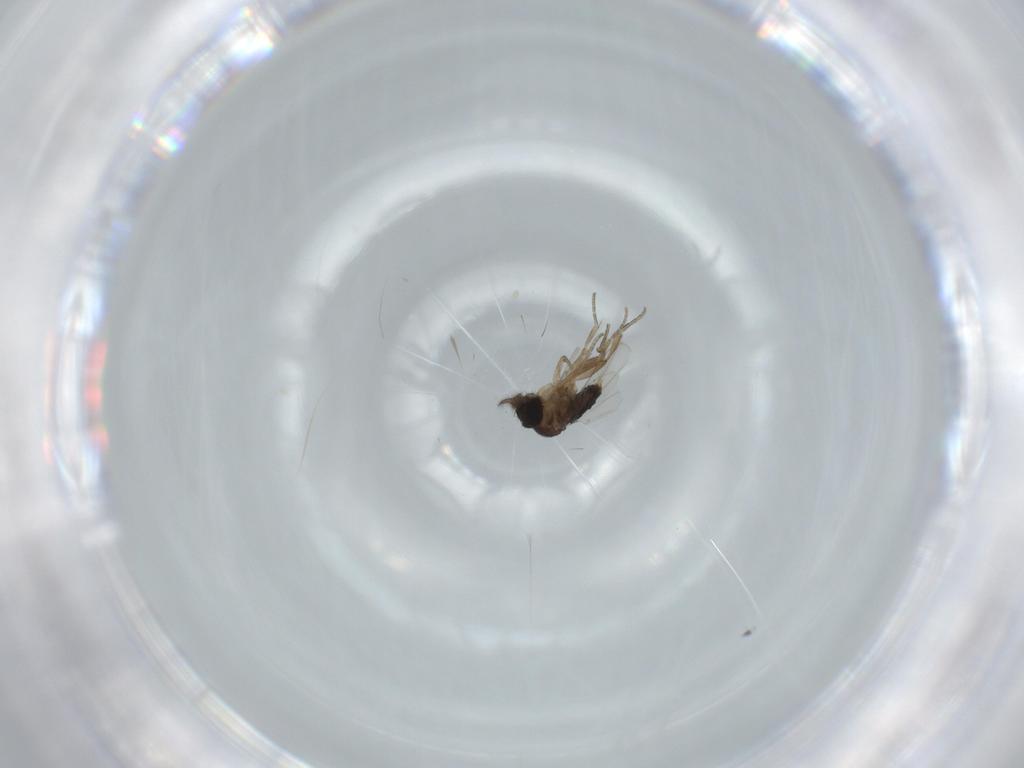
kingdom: Animalia
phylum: Arthropoda
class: Insecta
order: Diptera
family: Phoridae
